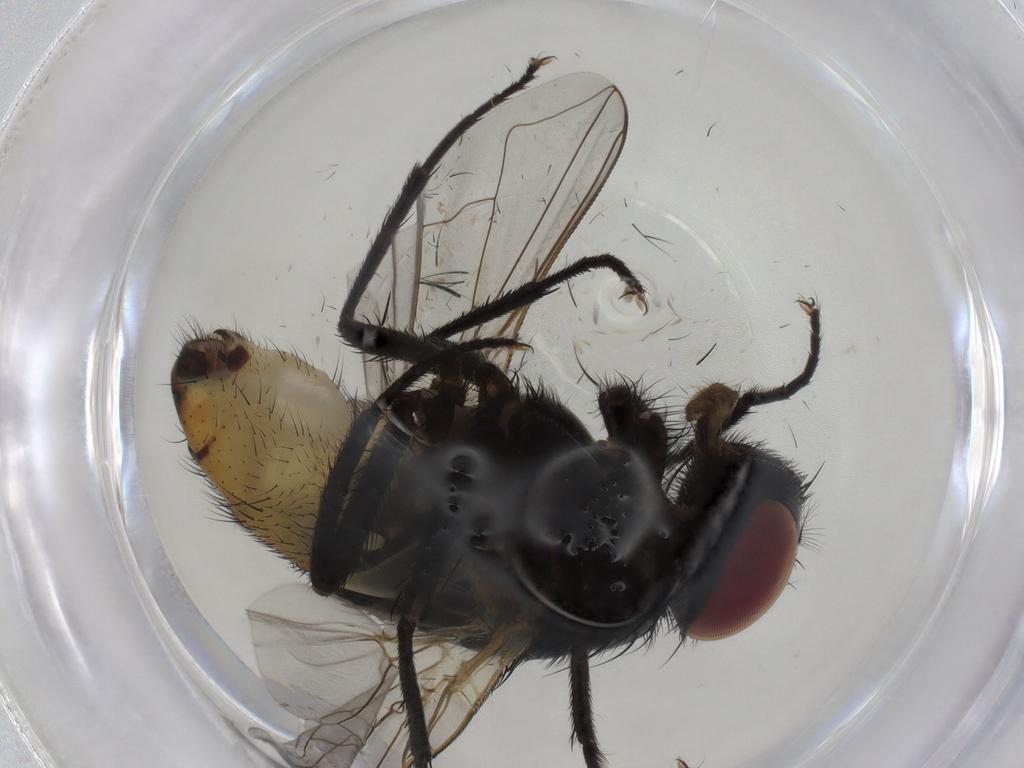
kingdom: Animalia
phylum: Arthropoda
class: Insecta
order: Diptera
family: Muscidae
